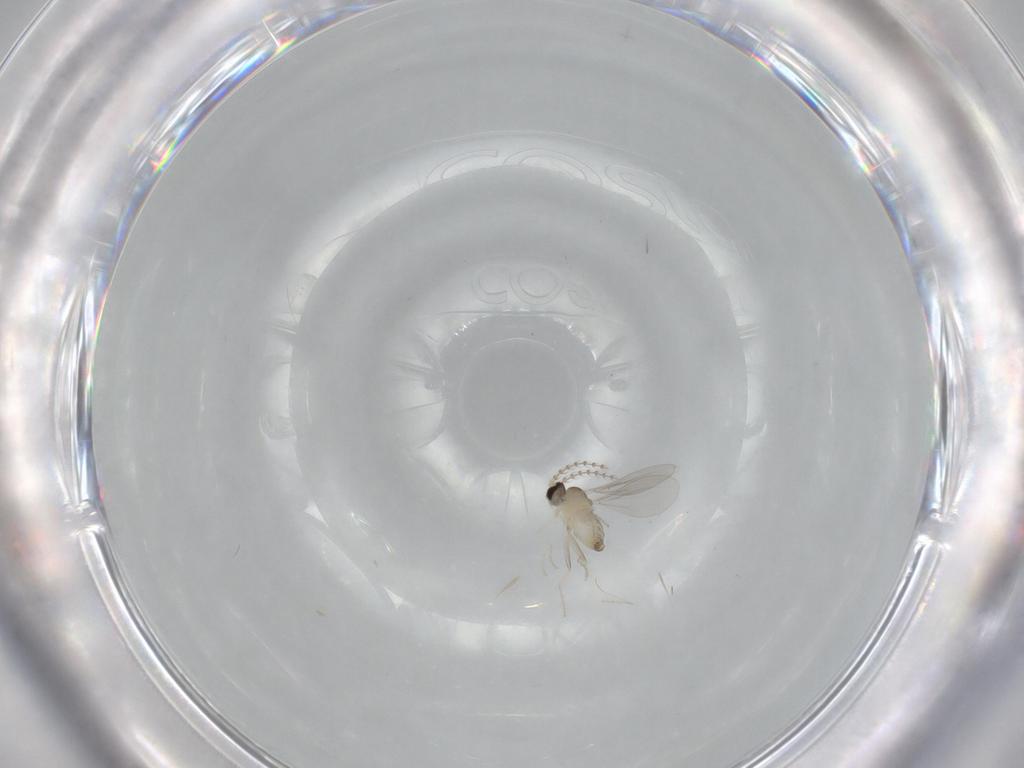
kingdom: Animalia
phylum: Arthropoda
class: Insecta
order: Diptera
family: Cecidomyiidae
